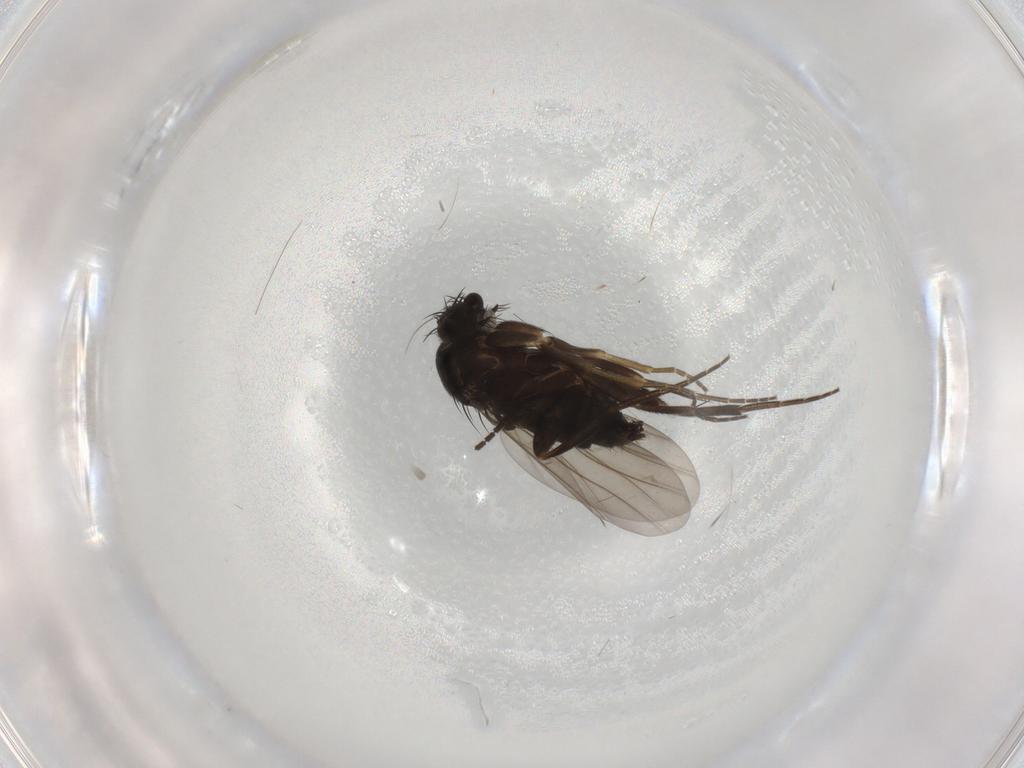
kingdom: Animalia
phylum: Arthropoda
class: Insecta
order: Diptera
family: Phoridae
